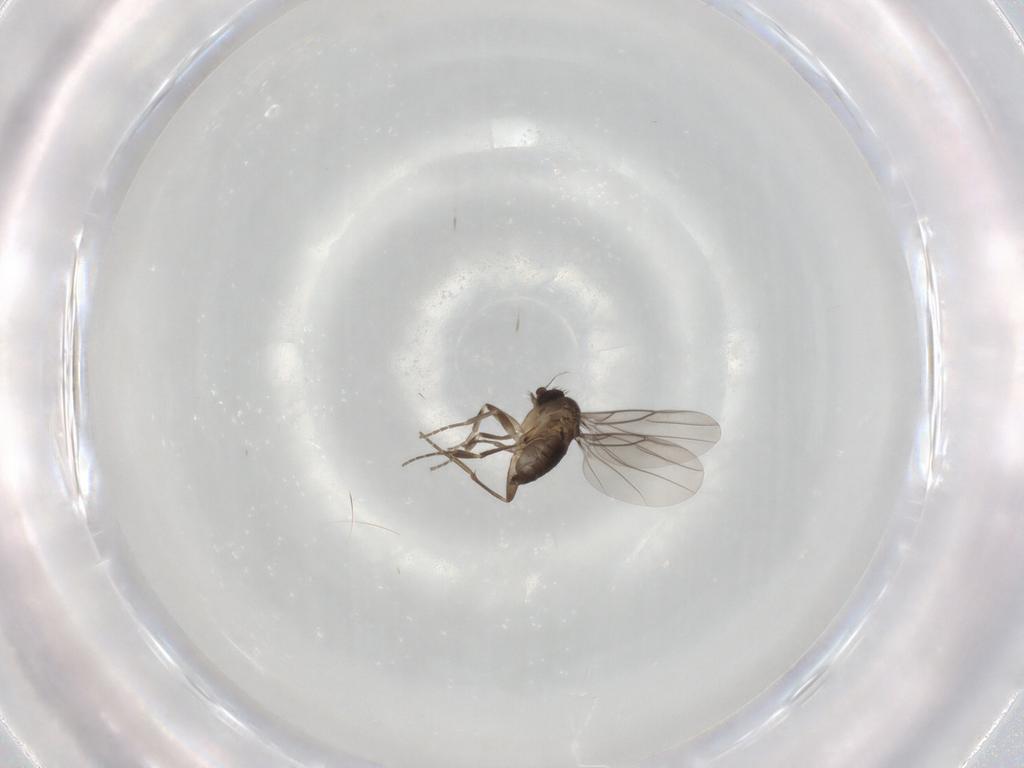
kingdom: Animalia
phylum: Arthropoda
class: Insecta
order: Diptera
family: Phoridae
